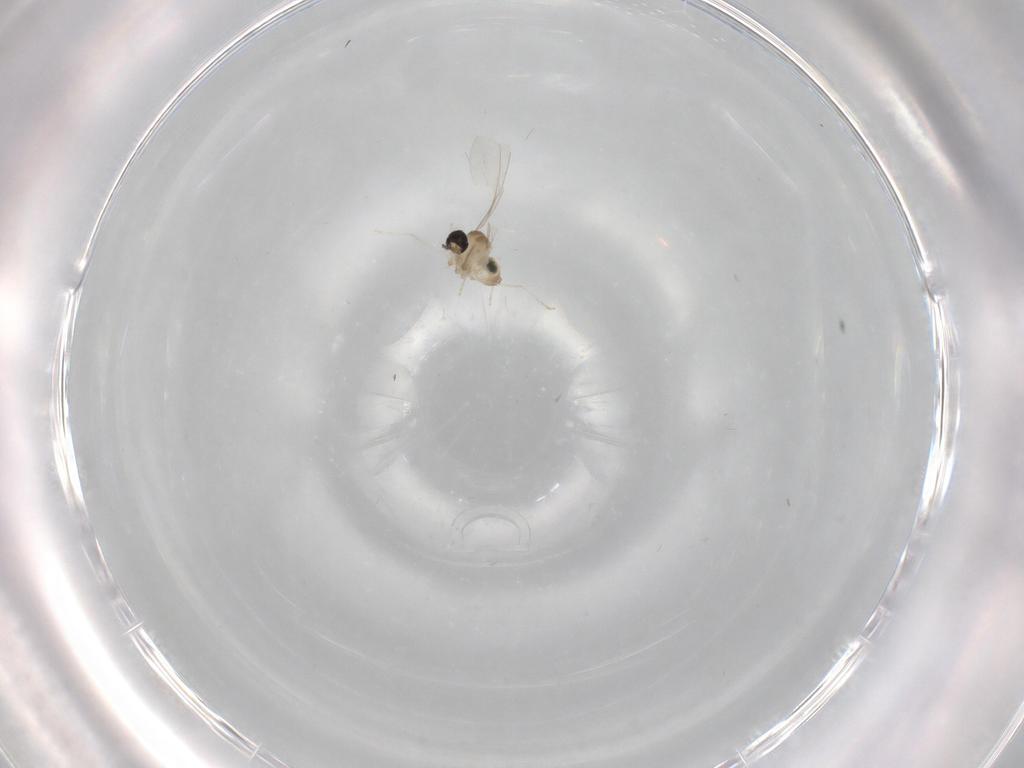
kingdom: Animalia
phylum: Arthropoda
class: Insecta
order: Diptera
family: Cecidomyiidae
